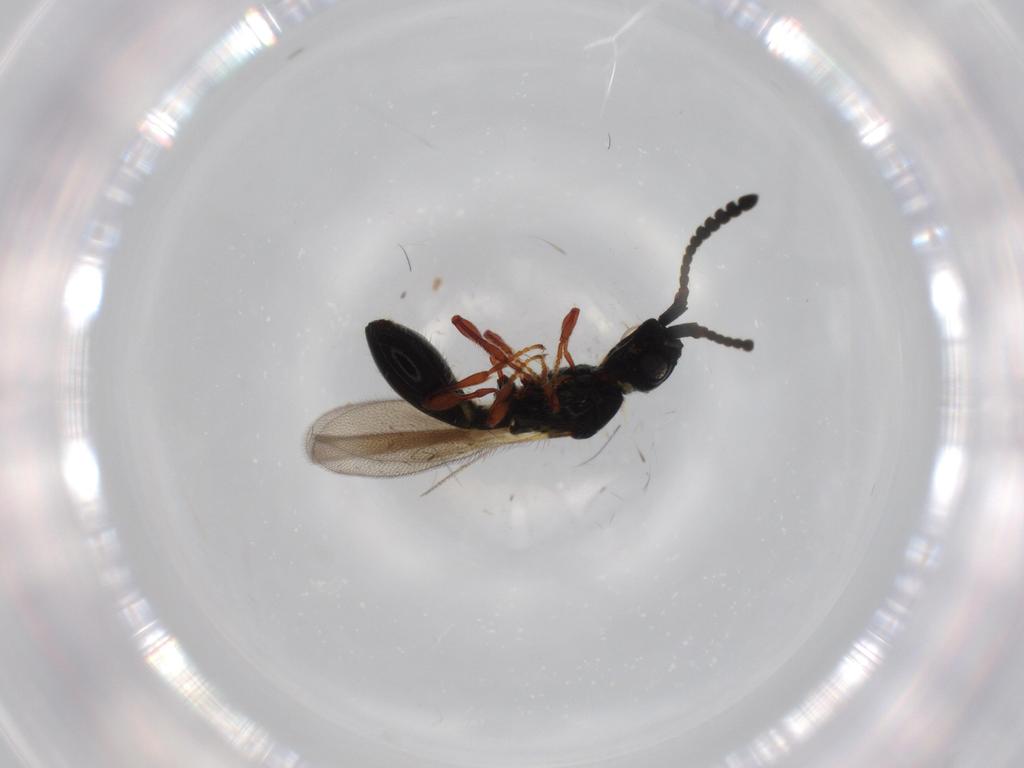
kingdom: Animalia
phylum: Arthropoda
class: Insecta
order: Hymenoptera
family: Diapriidae
